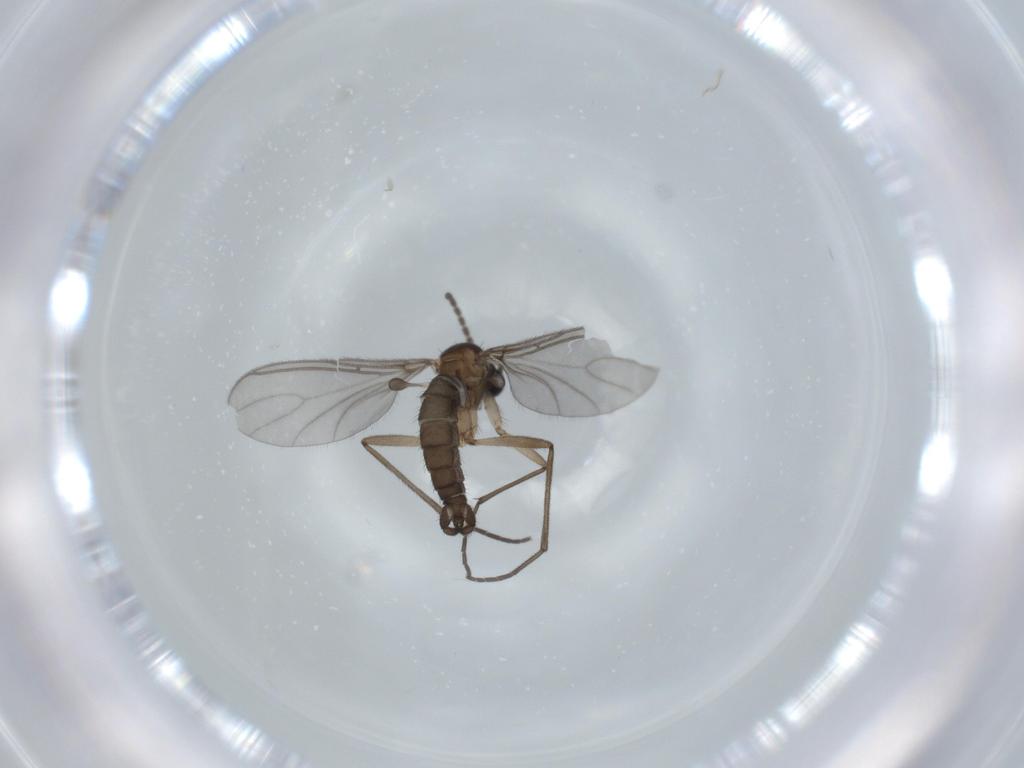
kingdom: Animalia
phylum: Arthropoda
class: Insecta
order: Diptera
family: Sciaridae
